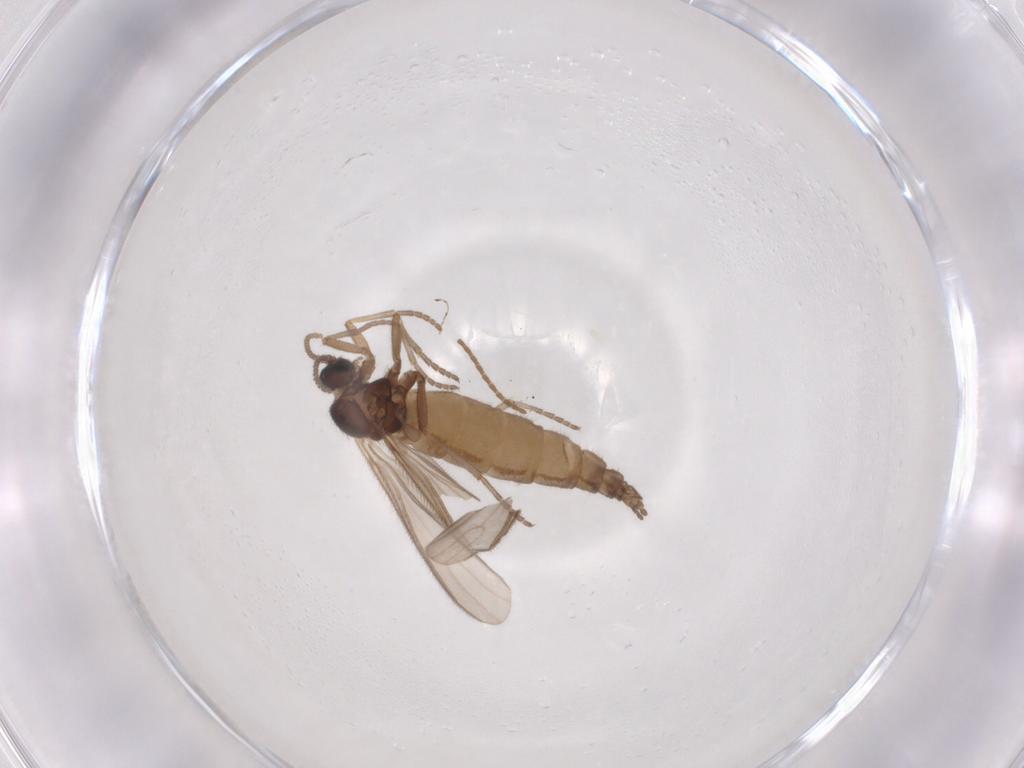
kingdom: Animalia
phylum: Arthropoda
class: Insecta
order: Diptera
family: Sciaridae
